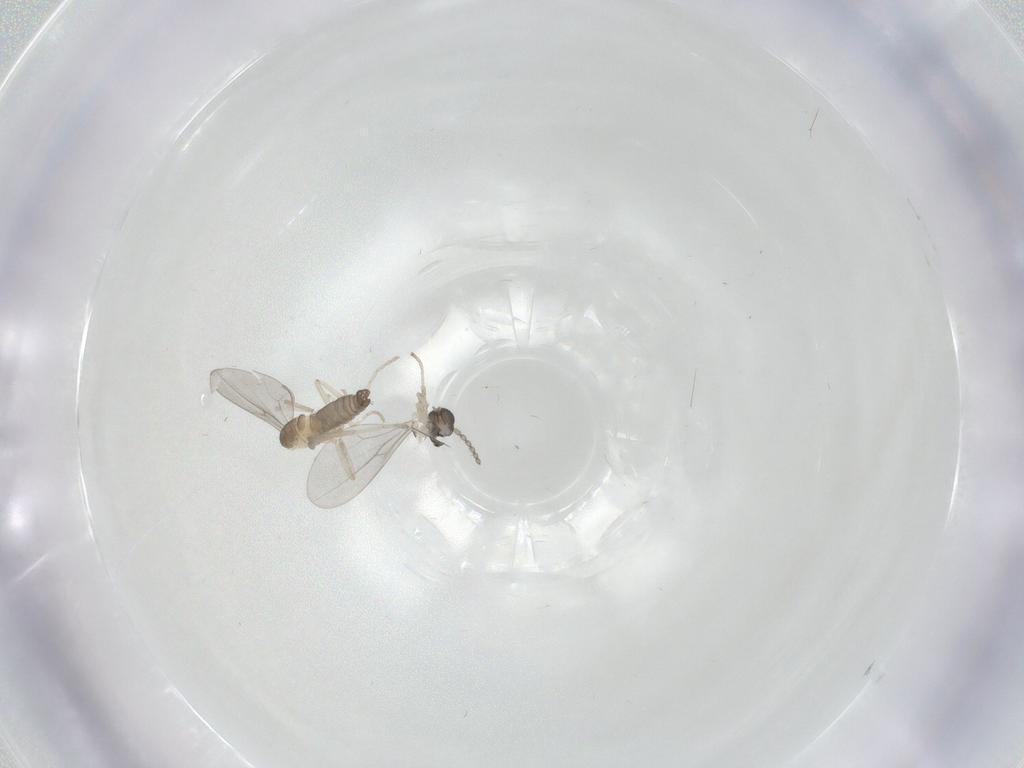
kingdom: Animalia
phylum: Arthropoda
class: Insecta
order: Diptera
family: Cecidomyiidae
